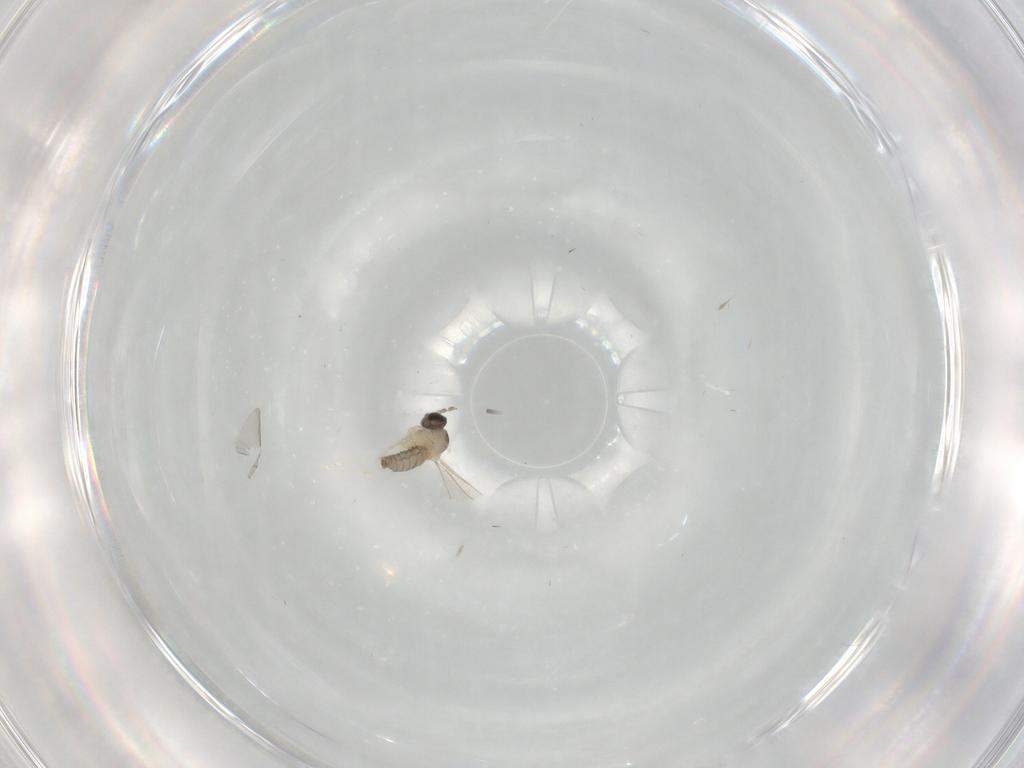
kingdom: Animalia
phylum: Arthropoda
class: Insecta
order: Diptera
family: Cecidomyiidae
